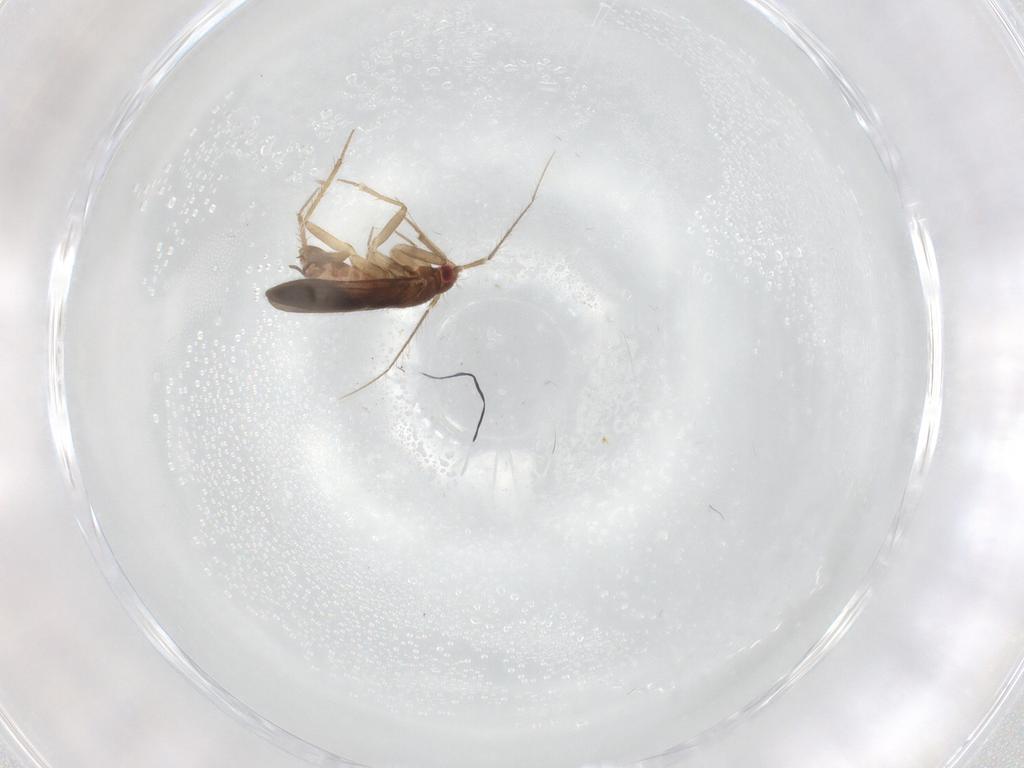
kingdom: Animalia
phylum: Arthropoda
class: Insecta
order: Hemiptera
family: Cicadellidae
